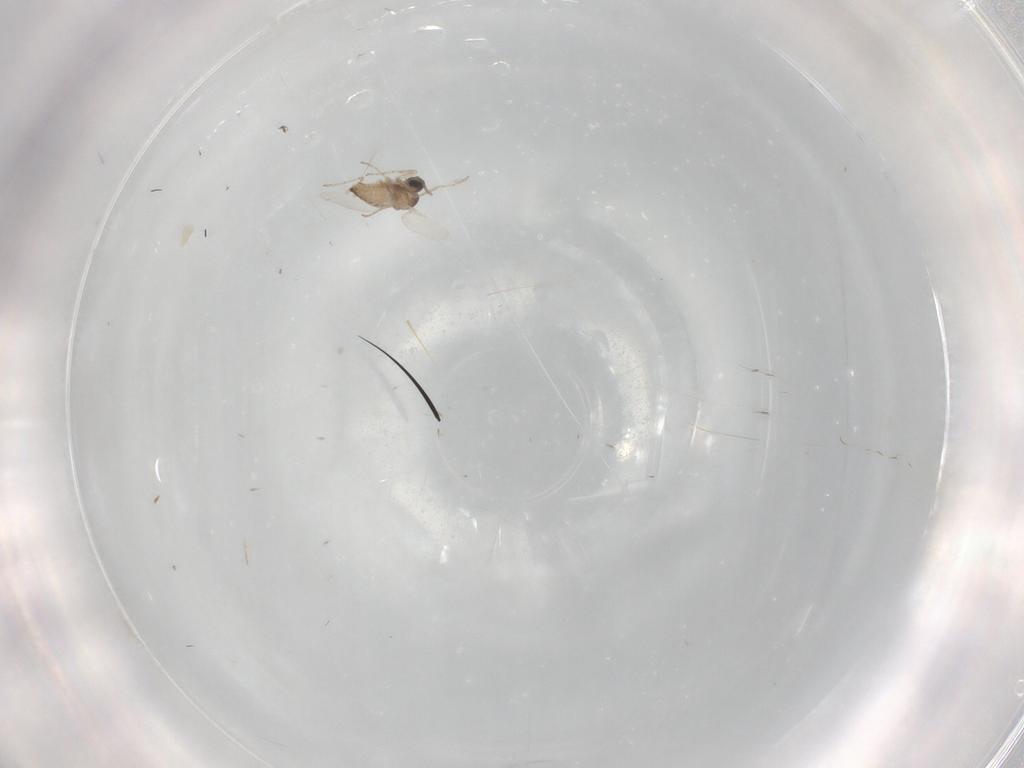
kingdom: Animalia
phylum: Arthropoda
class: Insecta
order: Diptera
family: Cecidomyiidae
